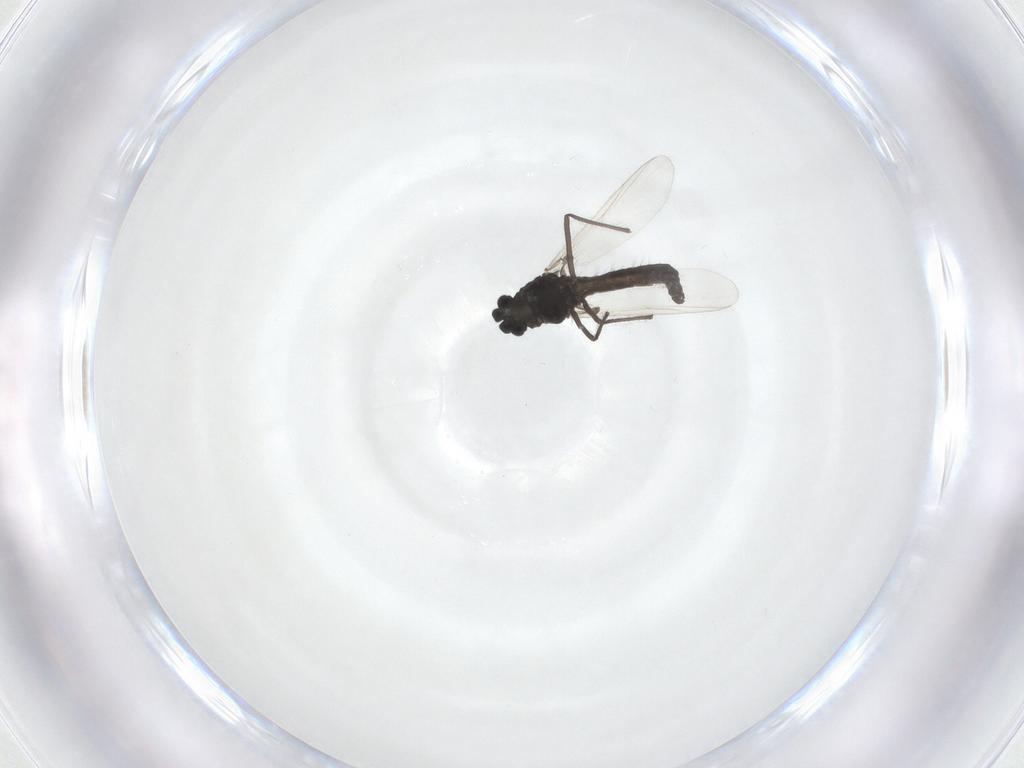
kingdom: Animalia
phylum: Arthropoda
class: Insecta
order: Diptera
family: Chironomidae
